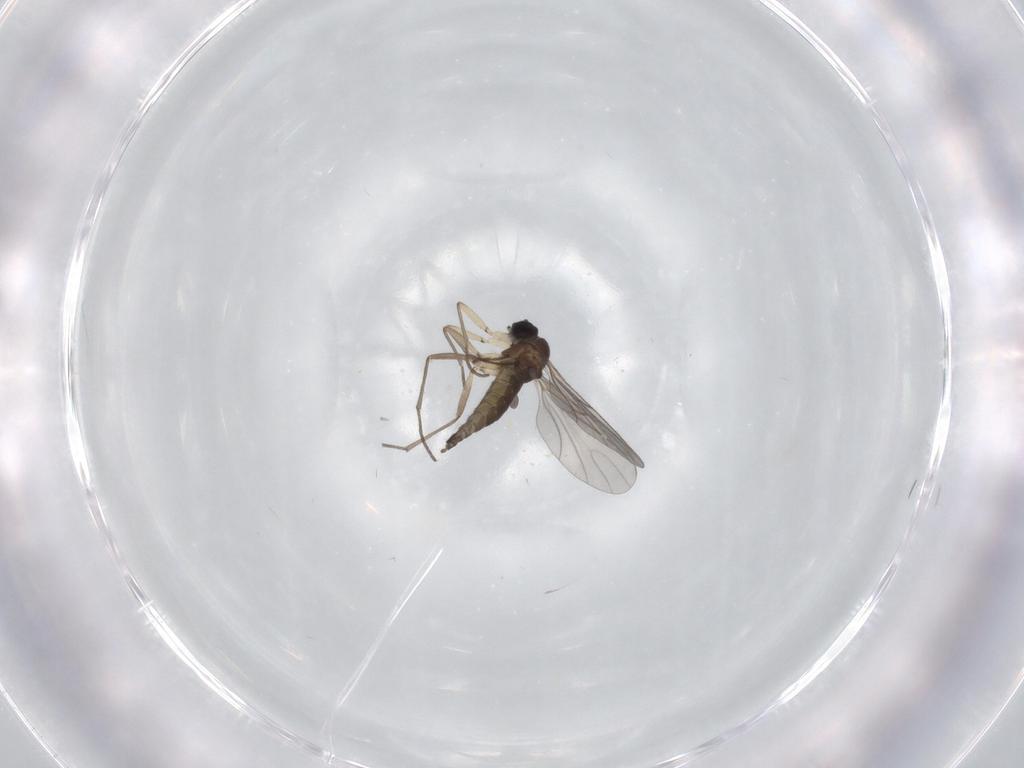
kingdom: Animalia
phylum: Arthropoda
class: Insecta
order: Diptera
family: Sciaridae
